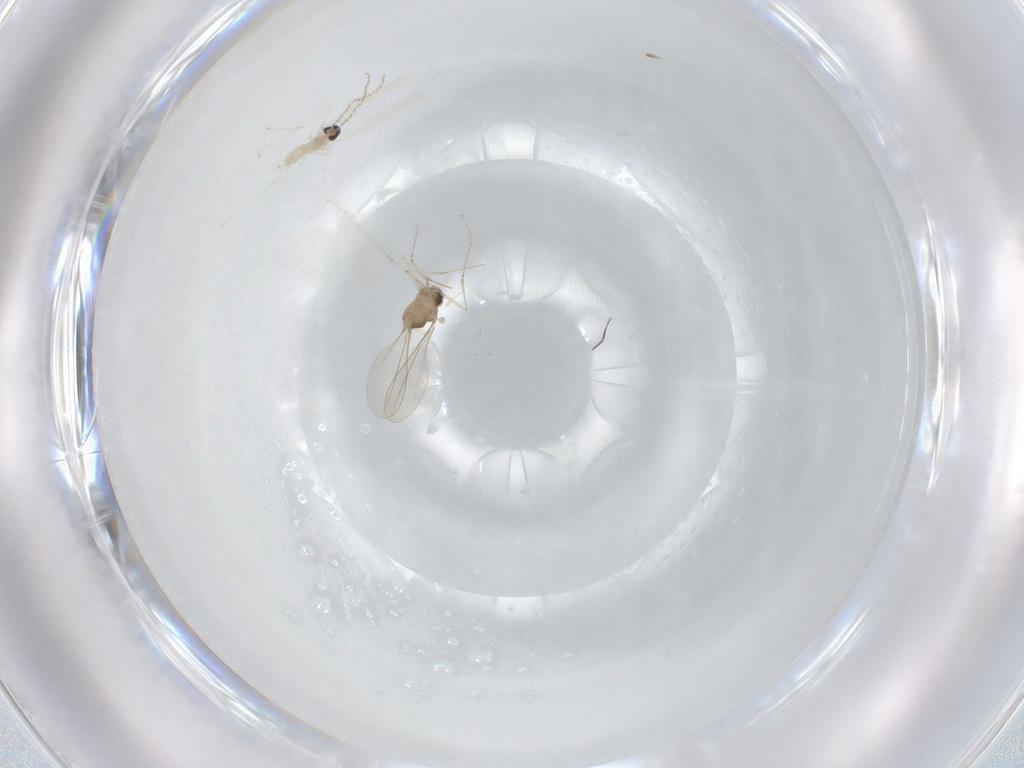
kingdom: Animalia
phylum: Arthropoda
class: Insecta
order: Diptera
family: Cecidomyiidae
